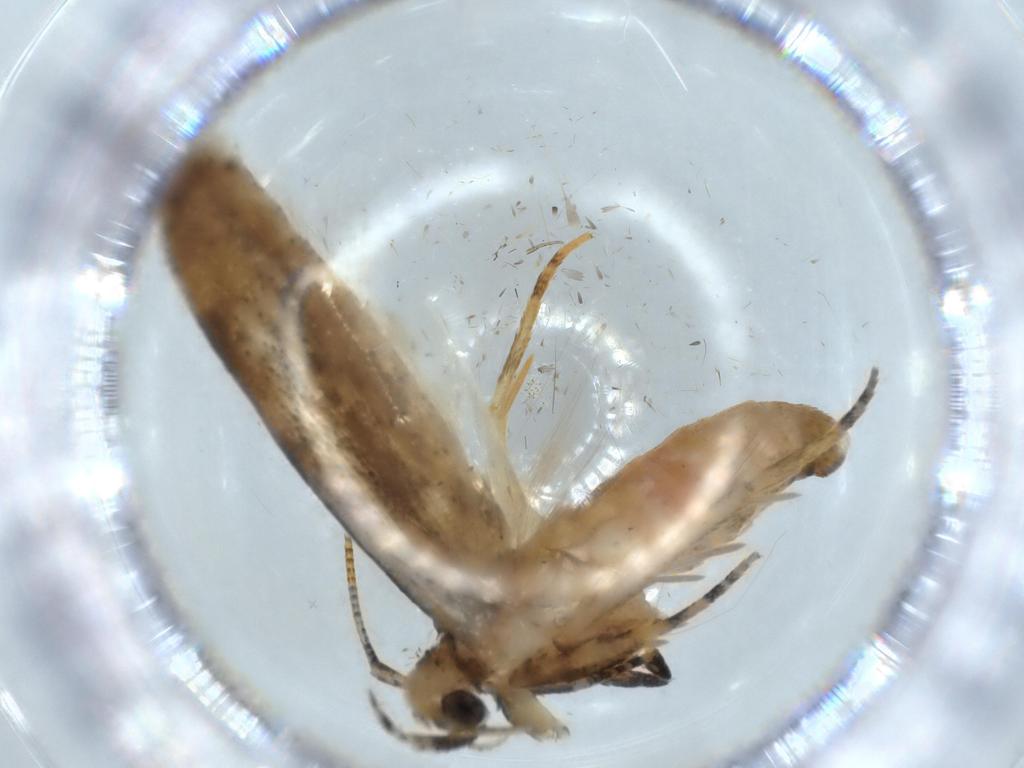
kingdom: Animalia
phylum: Arthropoda
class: Insecta
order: Lepidoptera
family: Autostichidae
